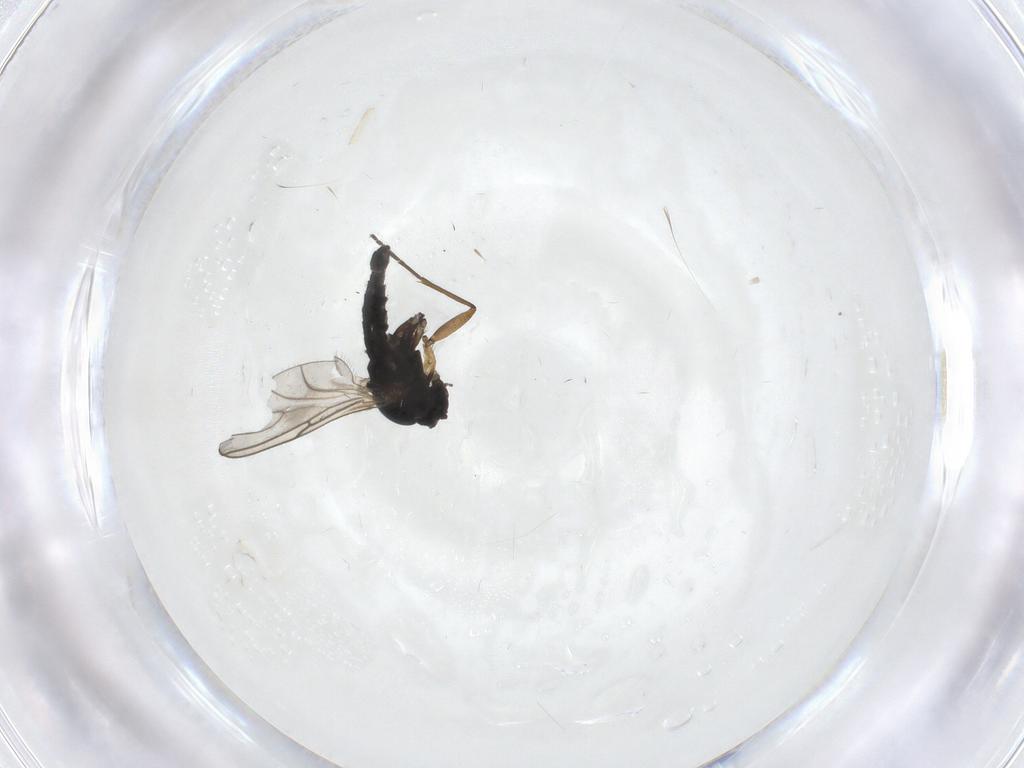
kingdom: Animalia
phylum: Arthropoda
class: Insecta
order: Diptera
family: Sciaridae
